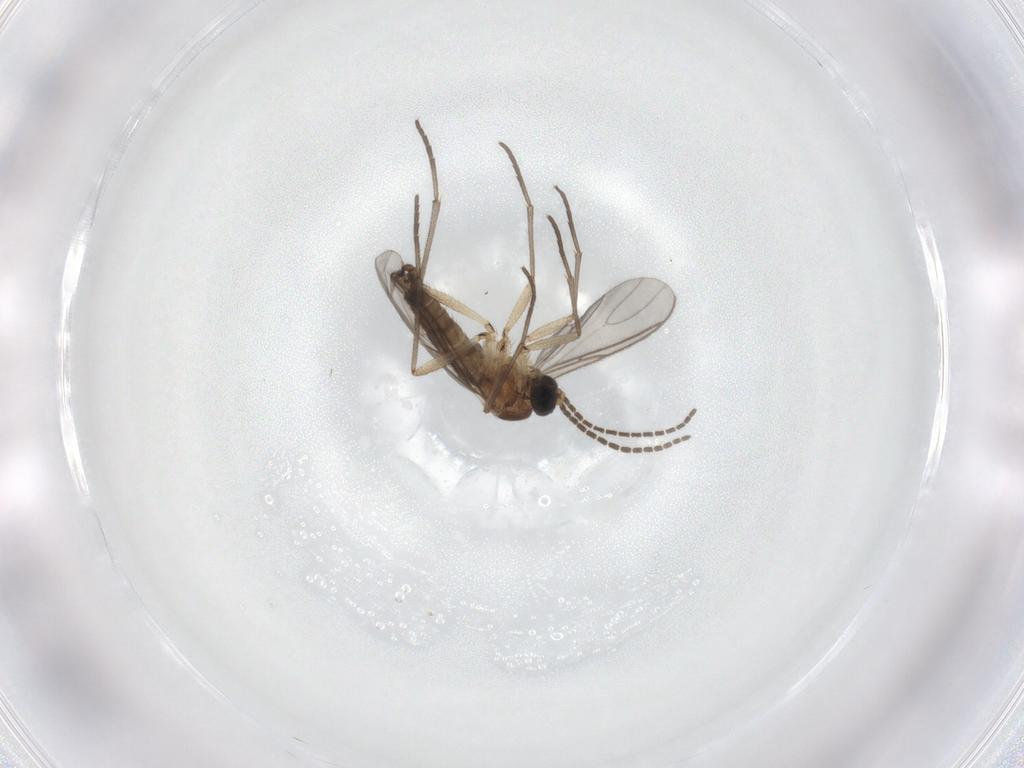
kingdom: Animalia
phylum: Arthropoda
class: Insecta
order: Diptera
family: Sciaridae
